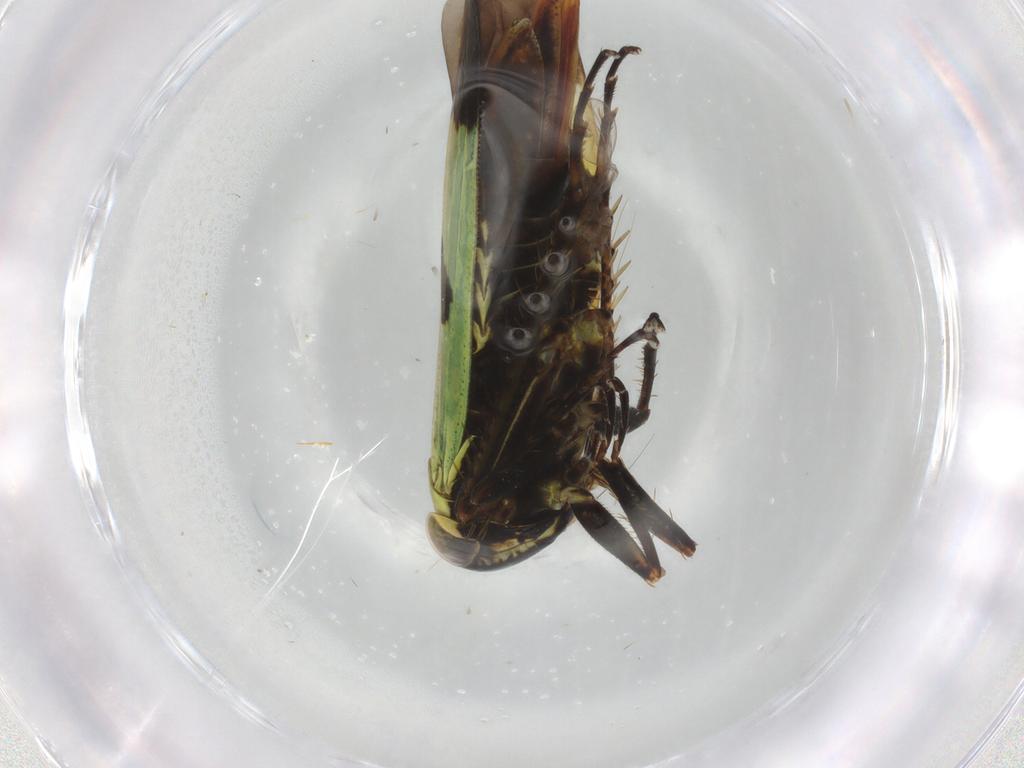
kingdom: Animalia
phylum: Arthropoda
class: Insecta
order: Hemiptera
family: Cicadellidae
